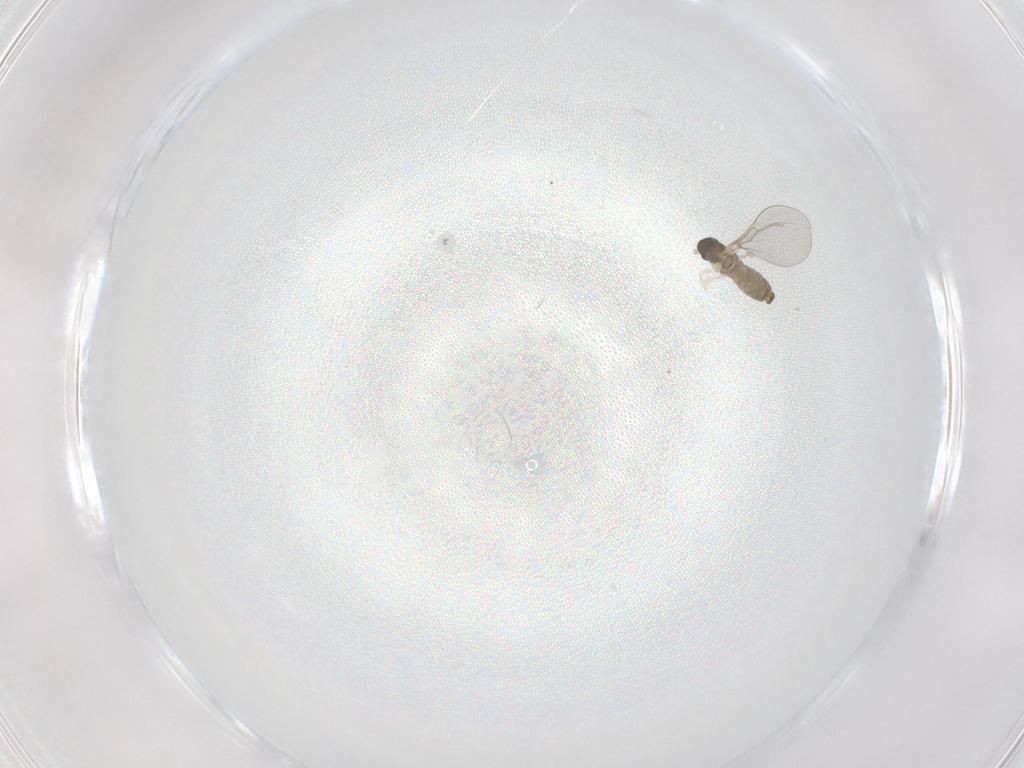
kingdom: Animalia
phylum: Arthropoda
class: Insecta
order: Diptera
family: Cecidomyiidae
